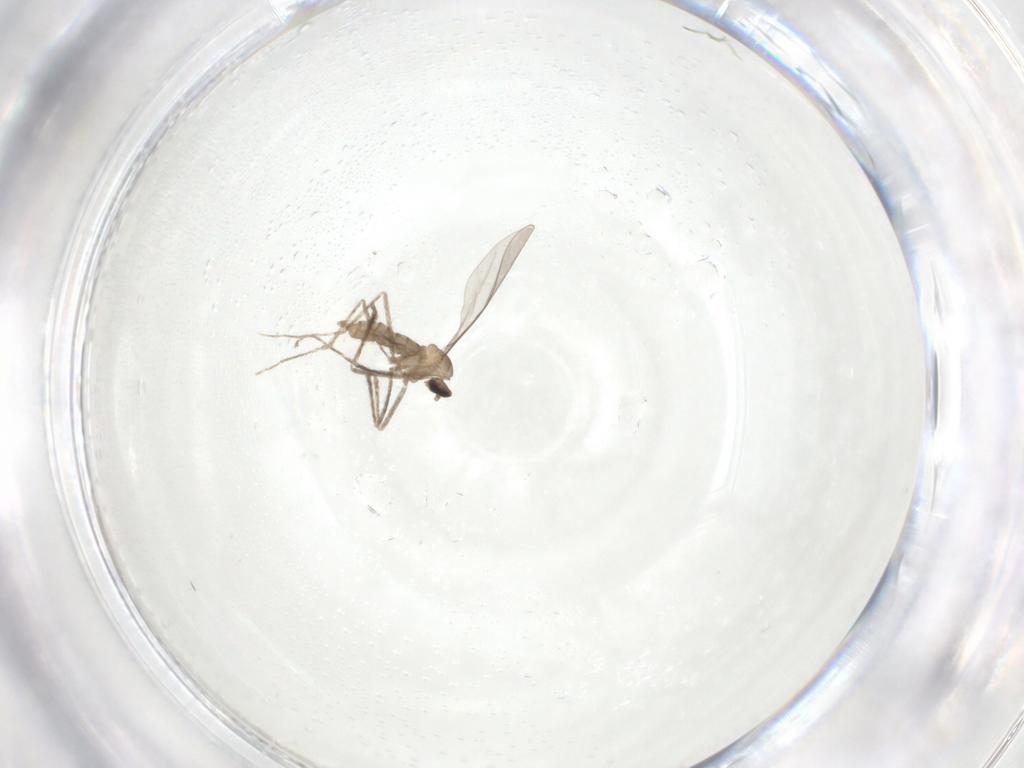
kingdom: Animalia
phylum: Arthropoda
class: Insecta
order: Diptera
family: Cecidomyiidae
